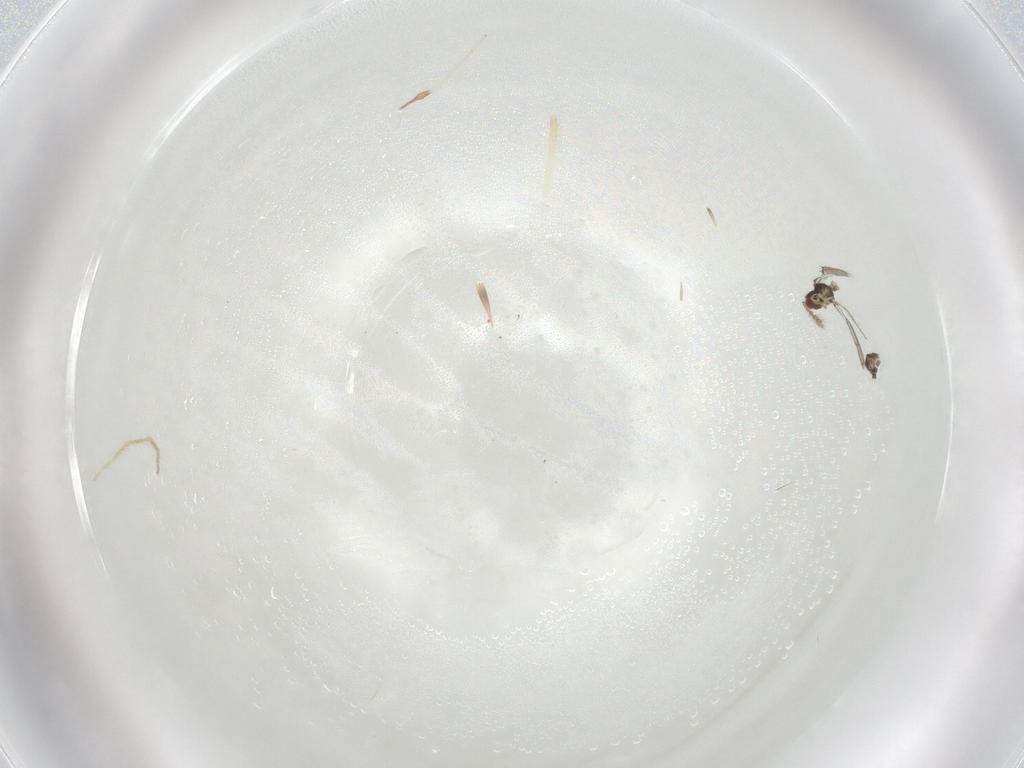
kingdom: Animalia
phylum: Arthropoda
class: Insecta
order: Hymenoptera
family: Eulophidae
